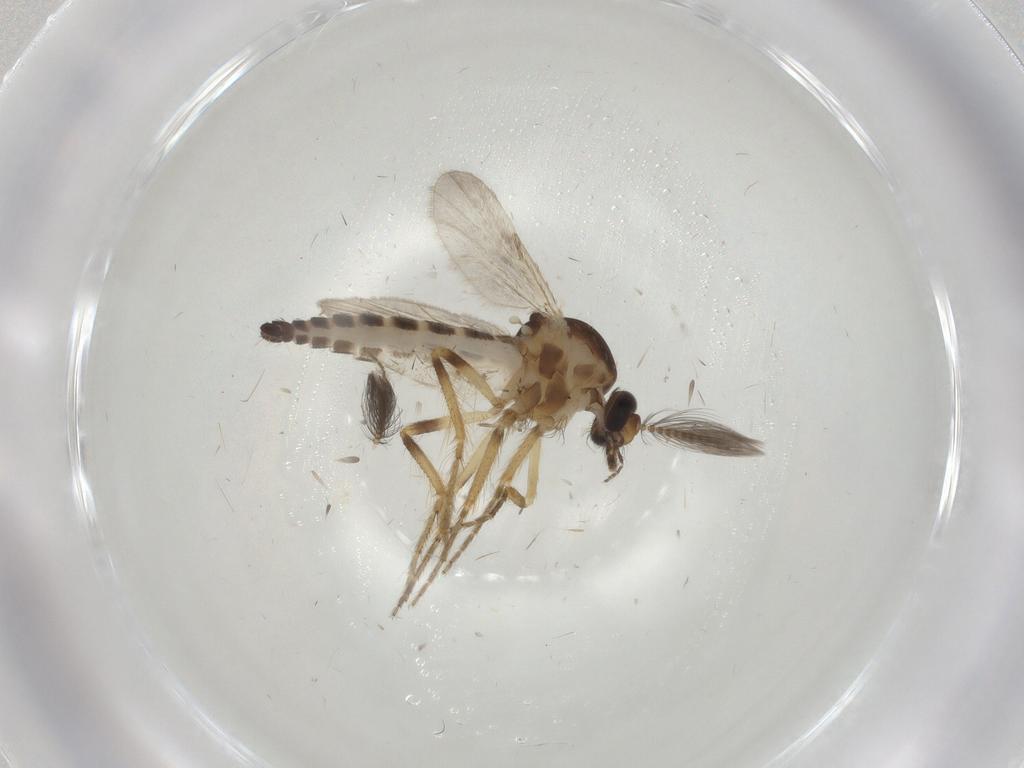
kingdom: Animalia
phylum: Arthropoda
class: Insecta
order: Diptera
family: Ceratopogonidae
